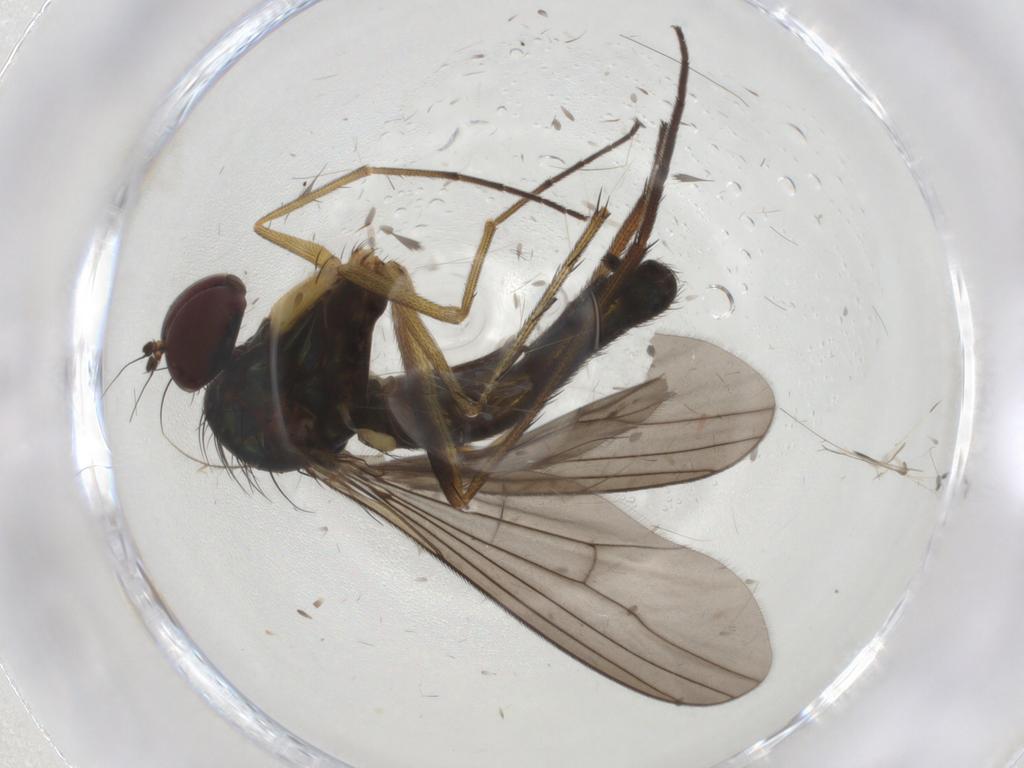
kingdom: Animalia
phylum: Arthropoda
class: Insecta
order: Diptera
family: Dolichopodidae
